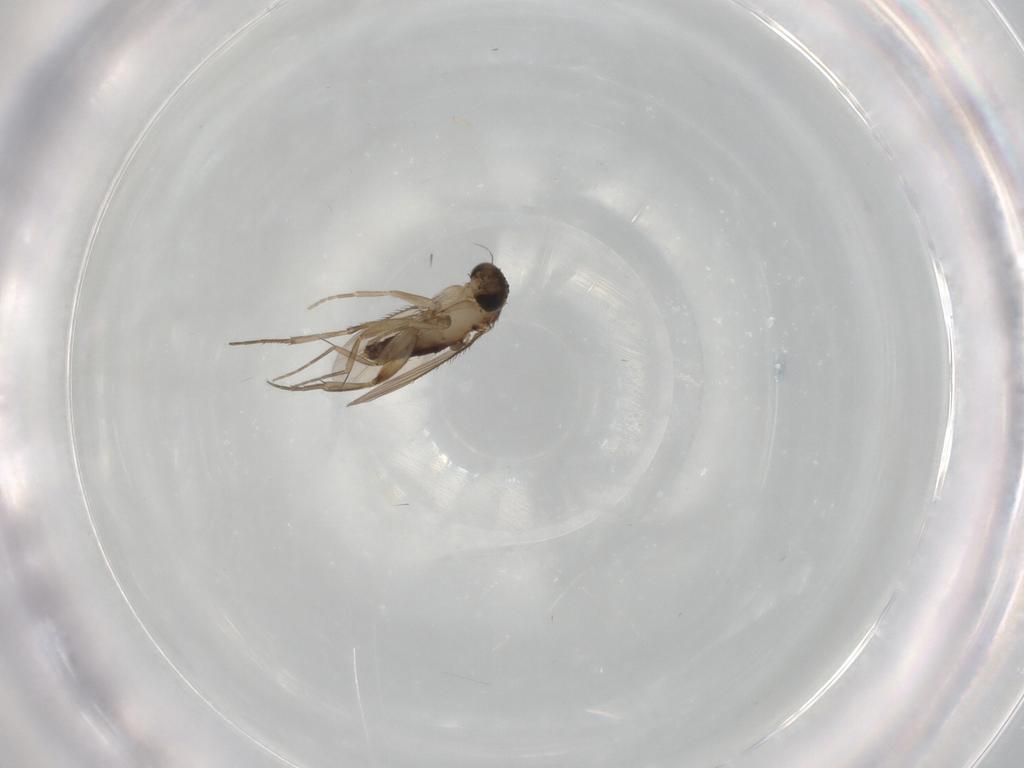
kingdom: Animalia
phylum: Arthropoda
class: Insecta
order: Diptera
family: Phoridae
